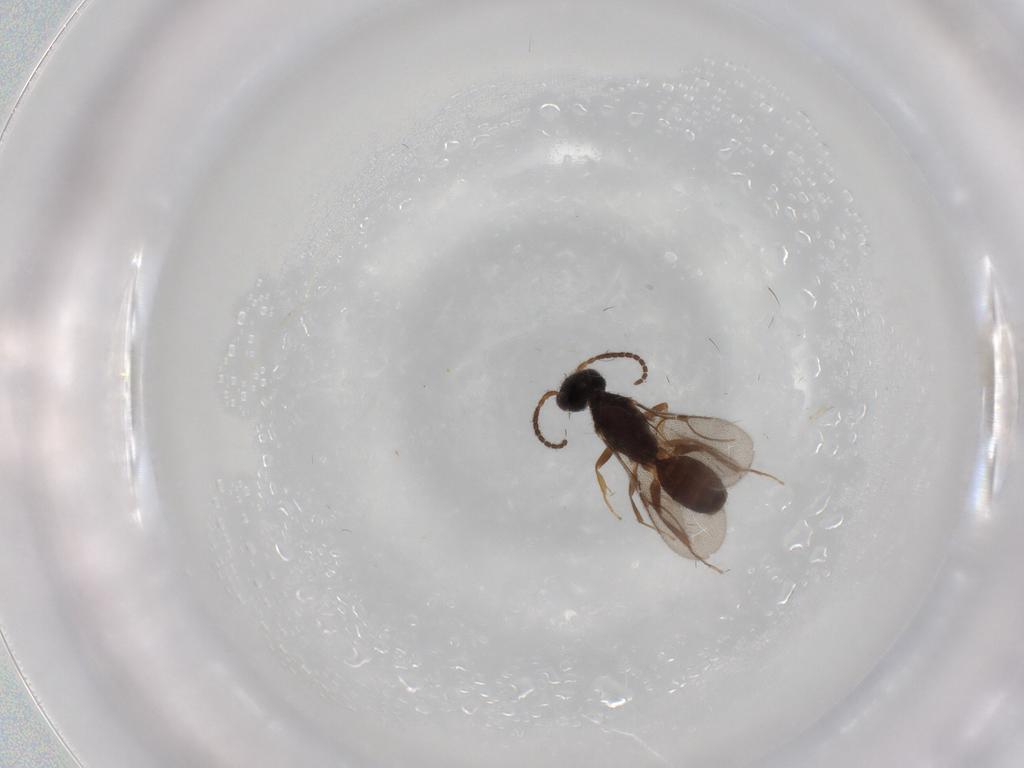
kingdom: Animalia
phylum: Arthropoda
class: Insecta
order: Hymenoptera
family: Bethylidae
